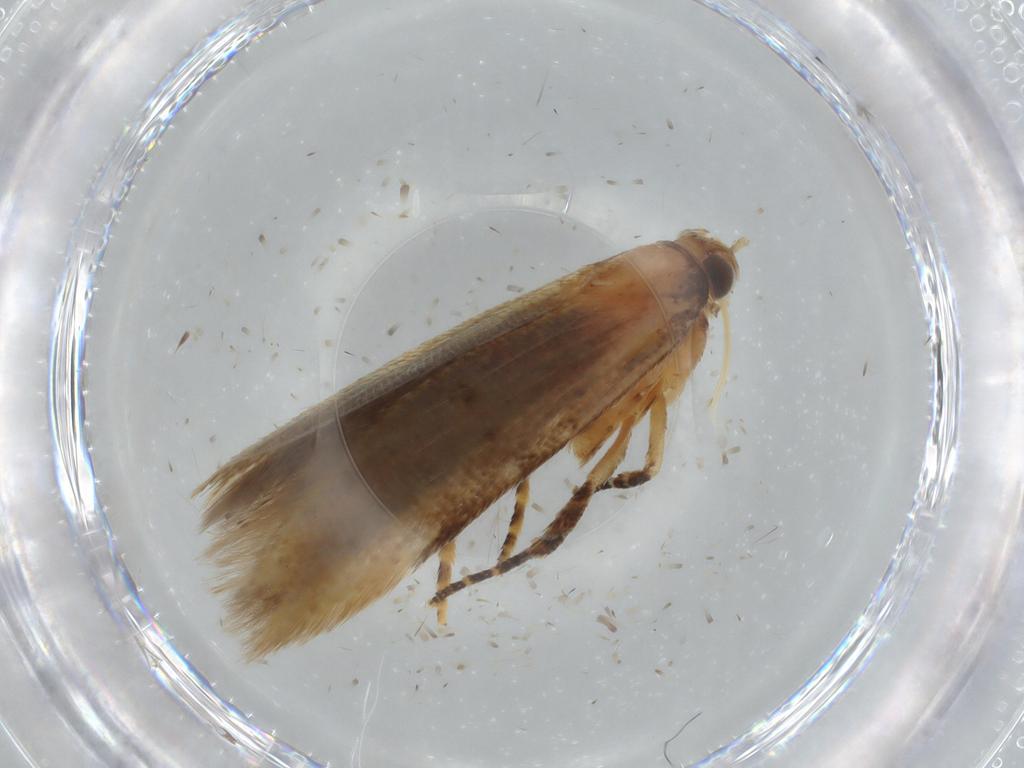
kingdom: Animalia
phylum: Arthropoda
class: Insecta
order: Lepidoptera
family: Gelechiidae
